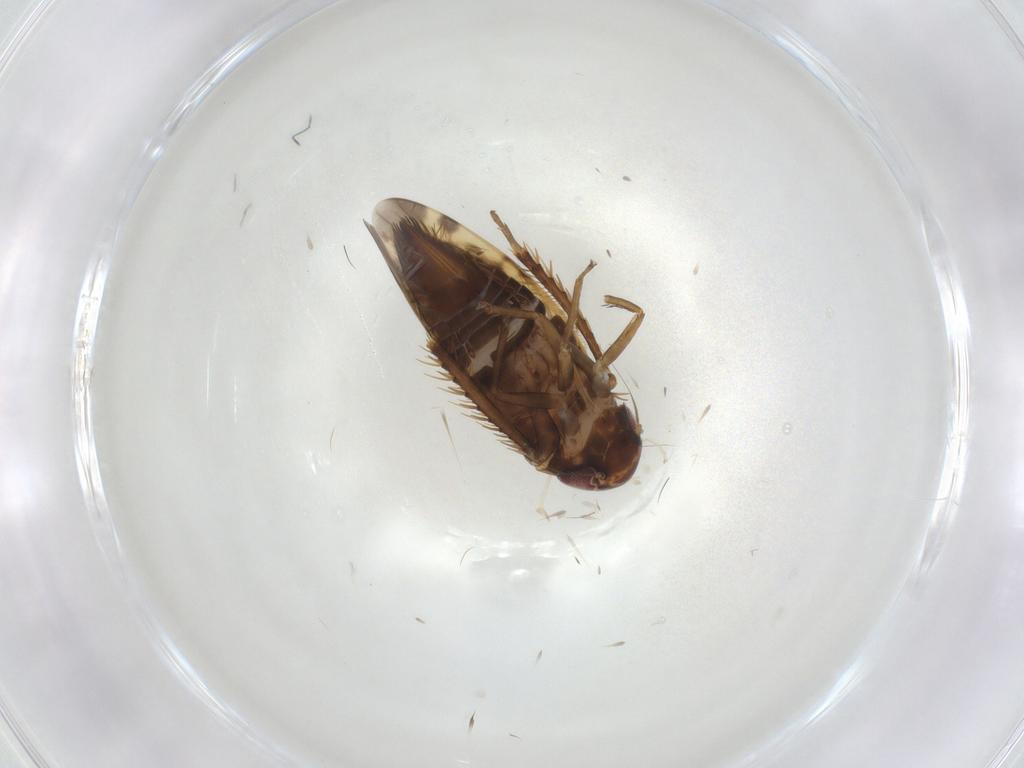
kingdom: Animalia
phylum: Arthropoda
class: Insecta
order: Hemiptera
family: Cicadellidae
